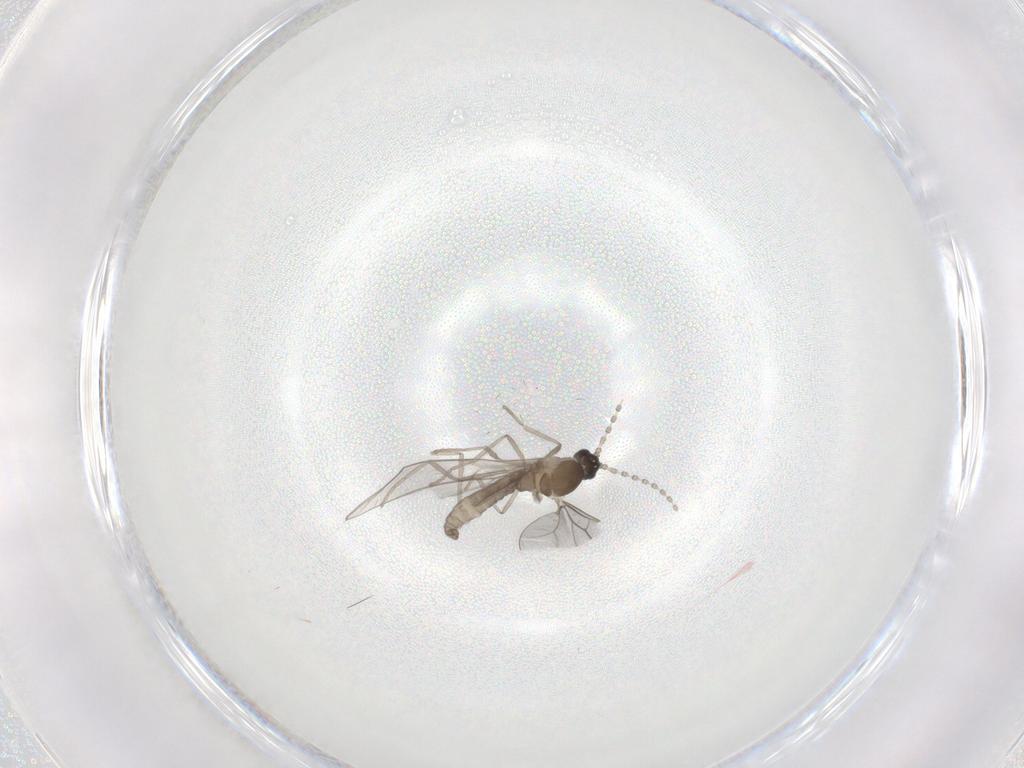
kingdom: Animalia
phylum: Arthropoda
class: Insecta
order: Diptera
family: Cecidomyiidae
